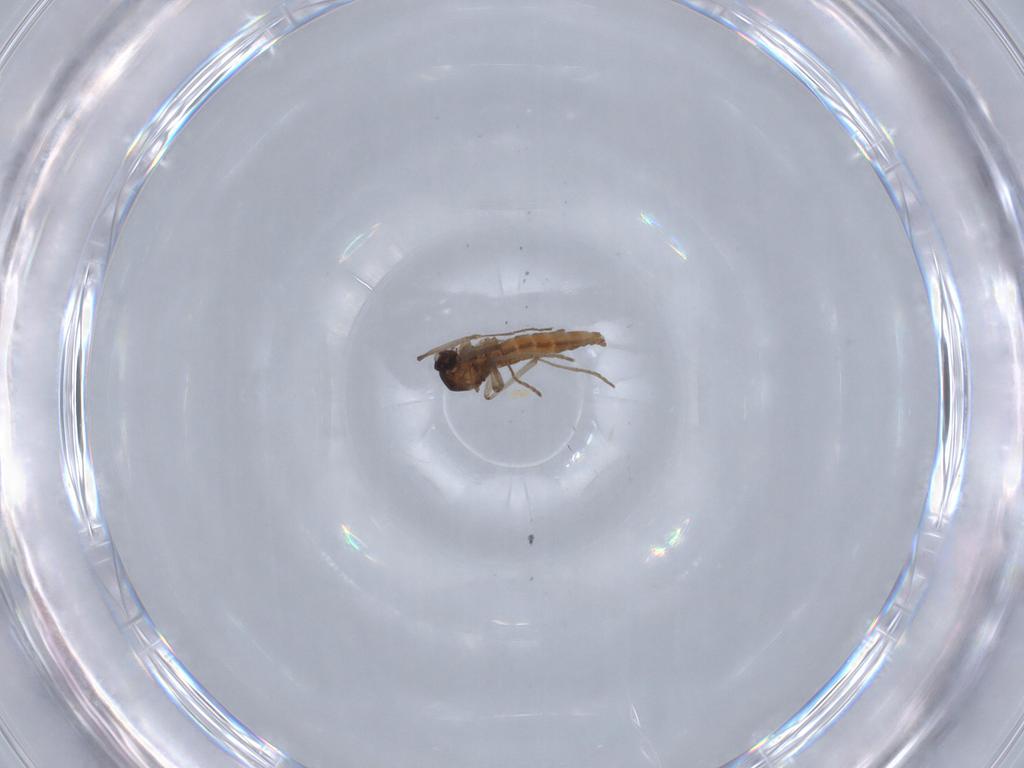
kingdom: Animalia
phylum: Arthropoda
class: Insecta
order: Diptera
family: Cecidomyiidae
